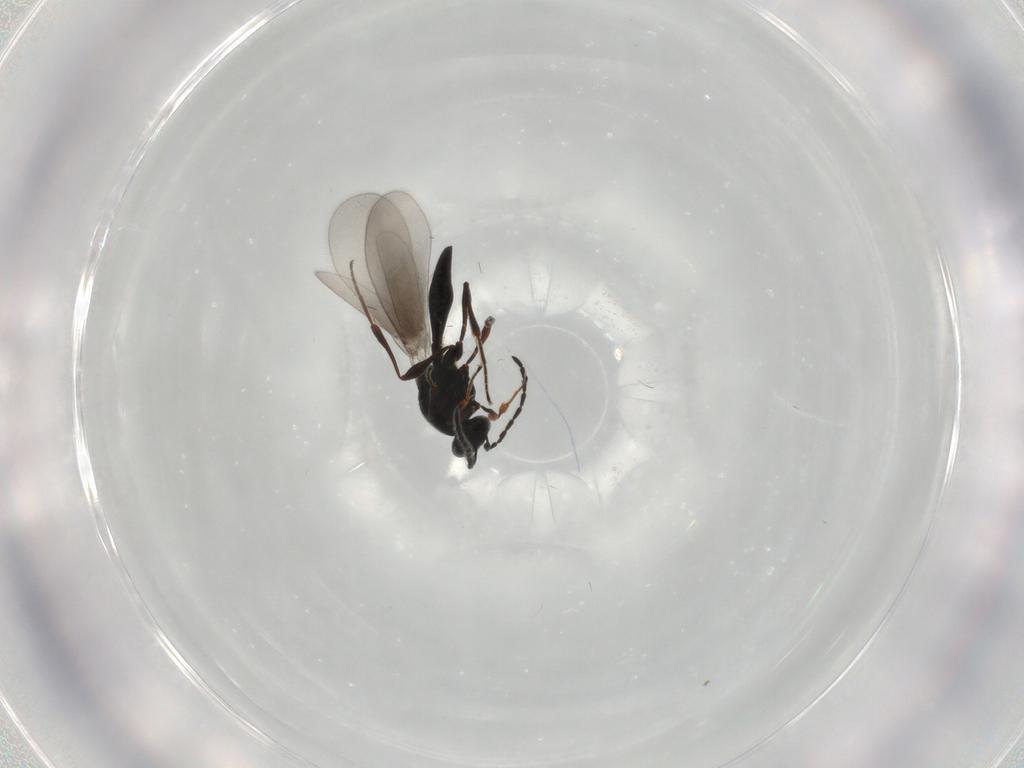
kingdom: Animalia
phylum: Arthropoda
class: Insecta
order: Hymenoptera
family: Platygastridae
